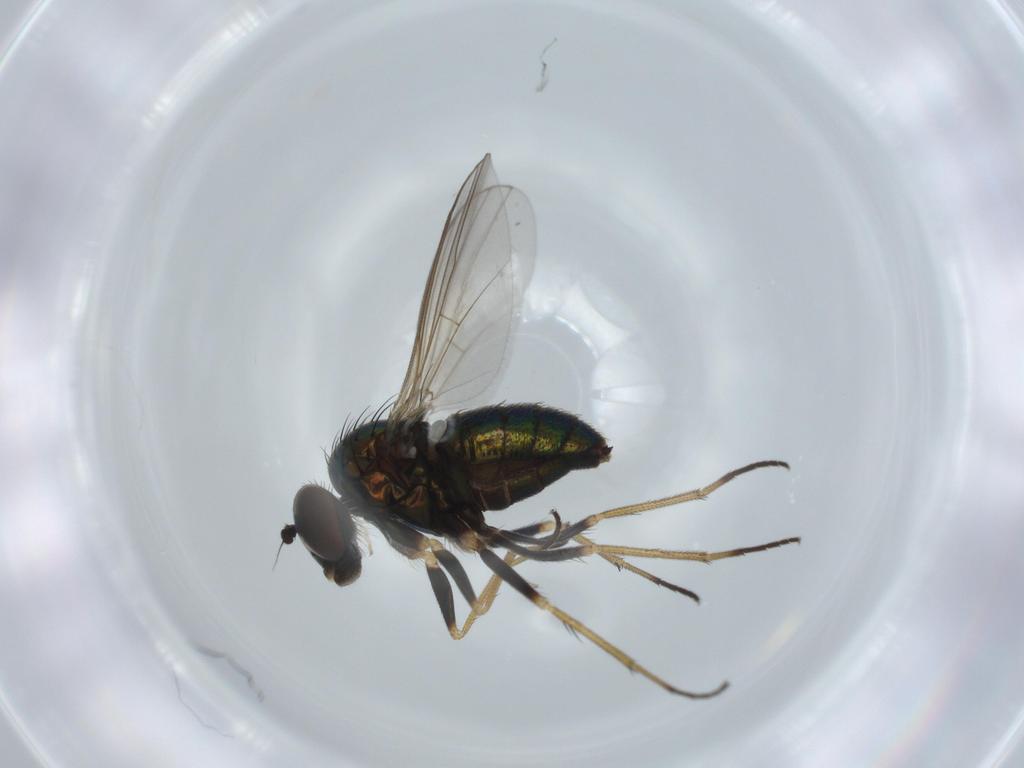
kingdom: Animalia
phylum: Arthropoda
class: Insecta
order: Diptera
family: Dolichopodidae
